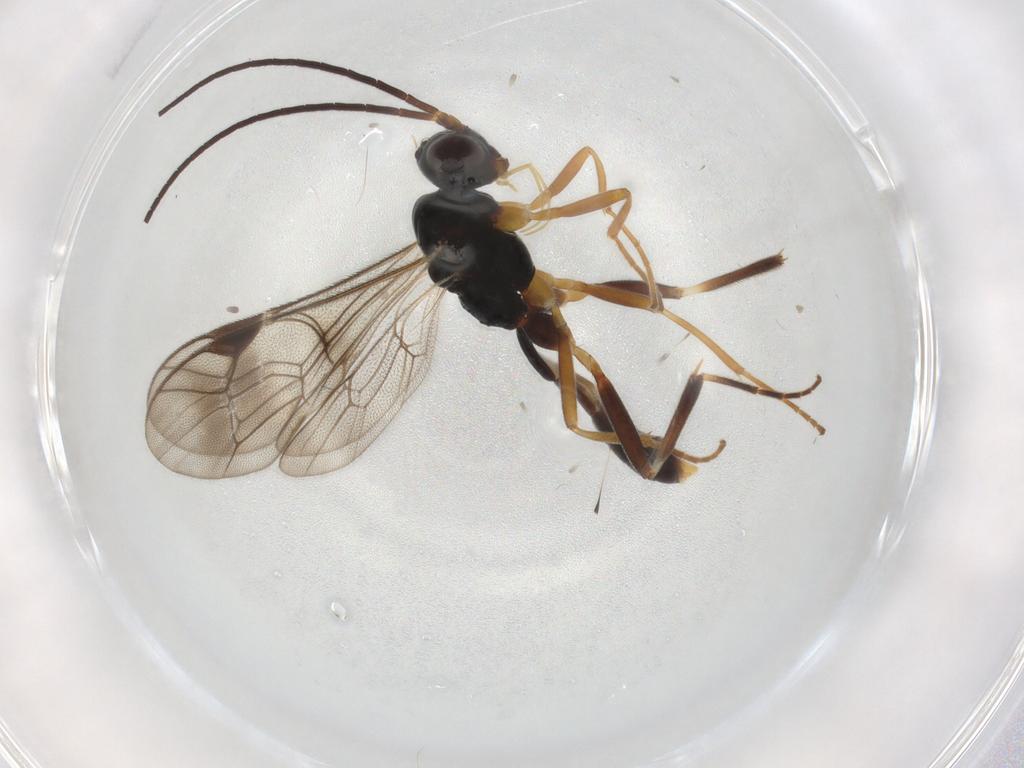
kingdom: Animalia
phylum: Arthropoda
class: Insecta
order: Hymenoptera
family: Ichneumonidae
